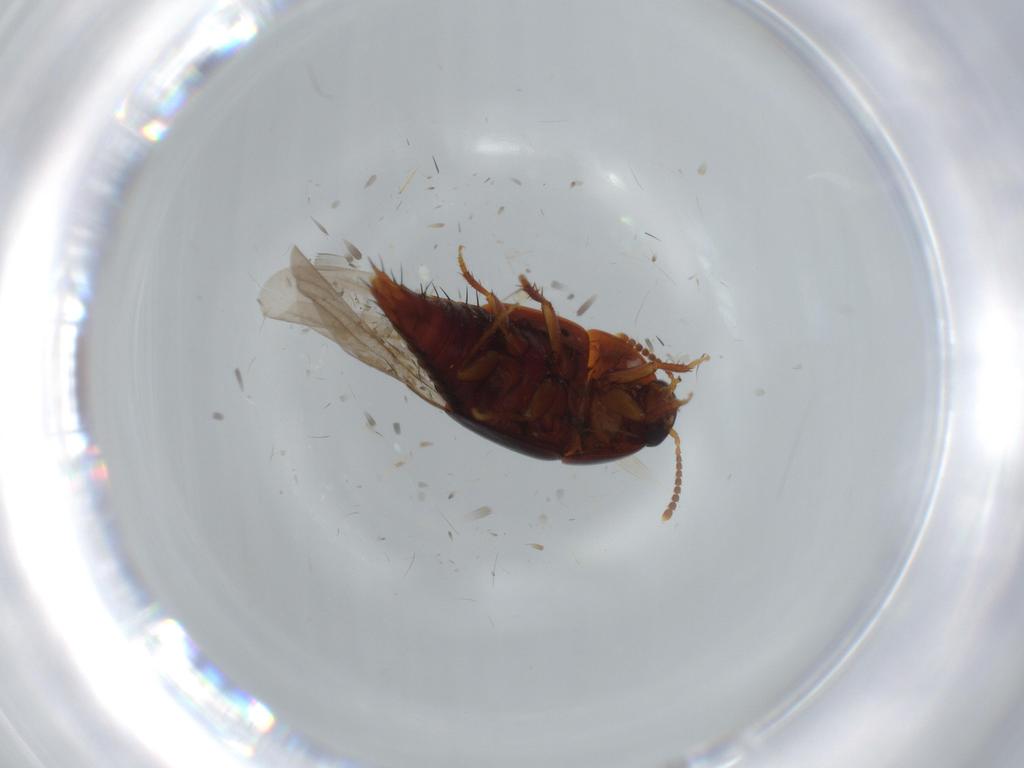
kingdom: Animalia
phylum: Arthropoda
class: Insecta
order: Coleoptera
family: Staphylinidae
